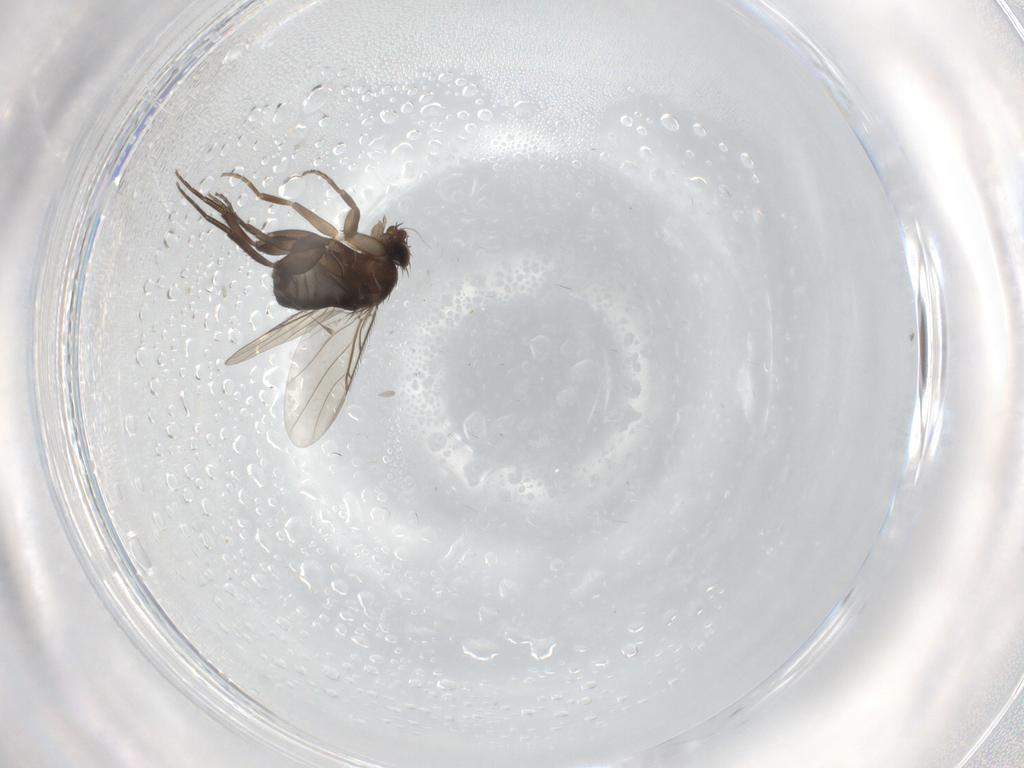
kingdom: Animalia
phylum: Arthropoda
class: Insecta
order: Diptera
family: Phoridae
